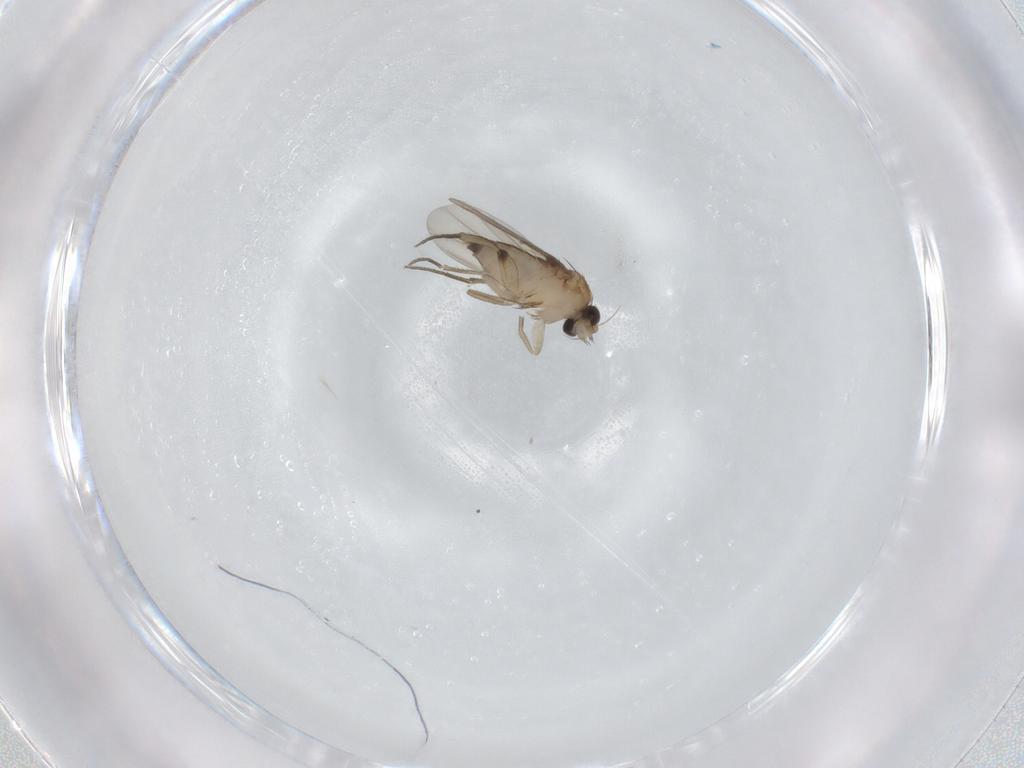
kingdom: Animalia
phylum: Arthropoda
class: Insecta
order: Diptera
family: Phoridae
